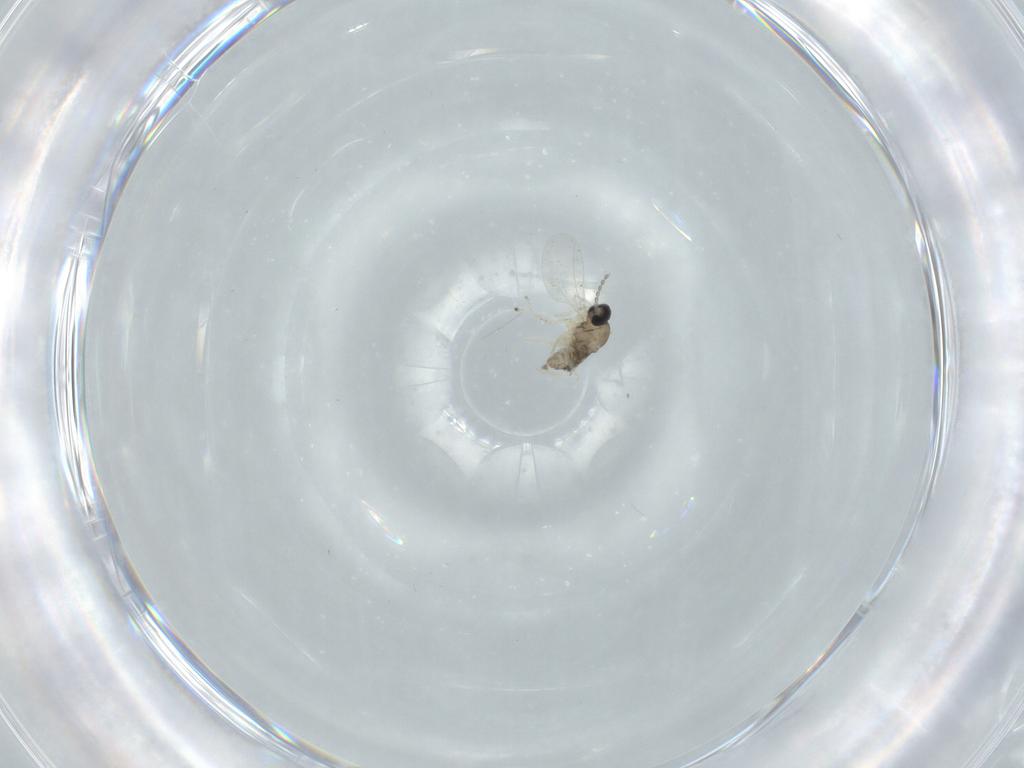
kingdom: Animalia
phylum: Arthropoda
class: Insecta
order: Diptera
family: Cecidomyiidae
